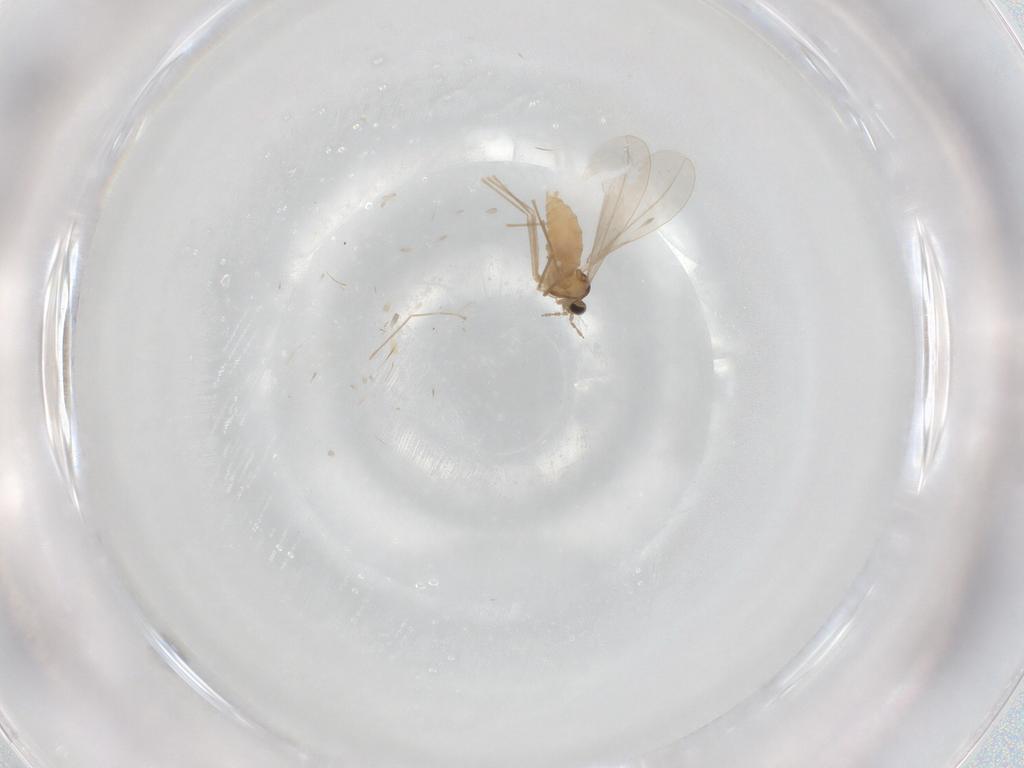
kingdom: Animalia
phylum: Arthropoda
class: Insecta
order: Diptera
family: Cecidomyiidae
